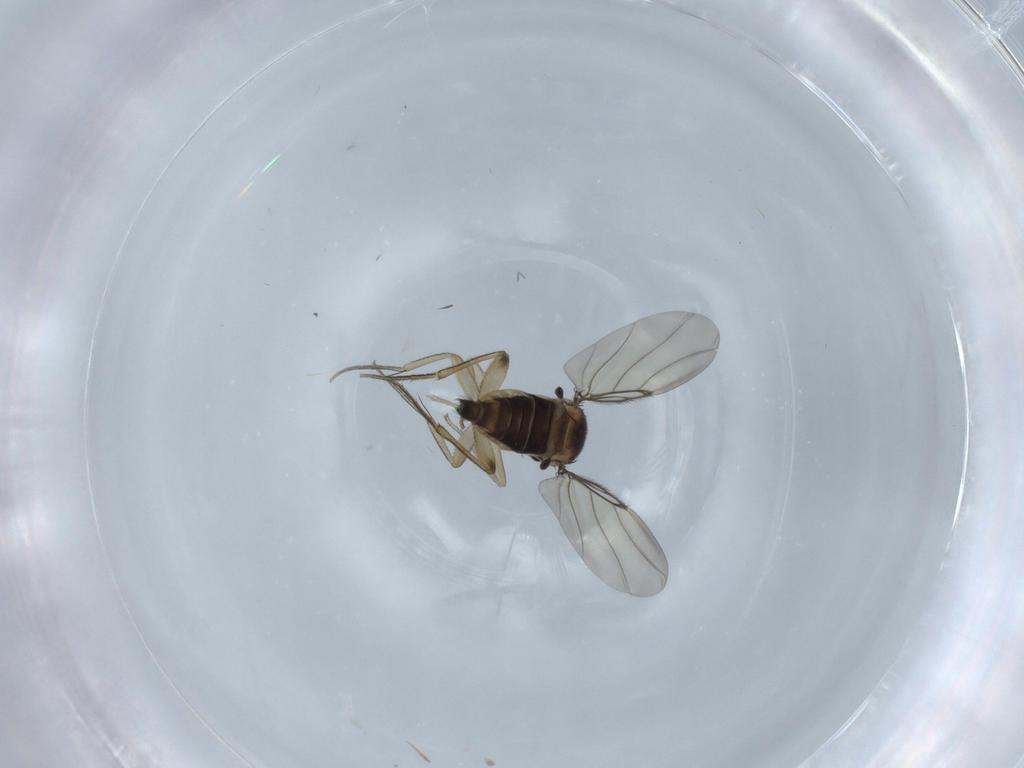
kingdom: Animalia
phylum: Arthropoda
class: Insecta
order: Diptera
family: Phoridae
